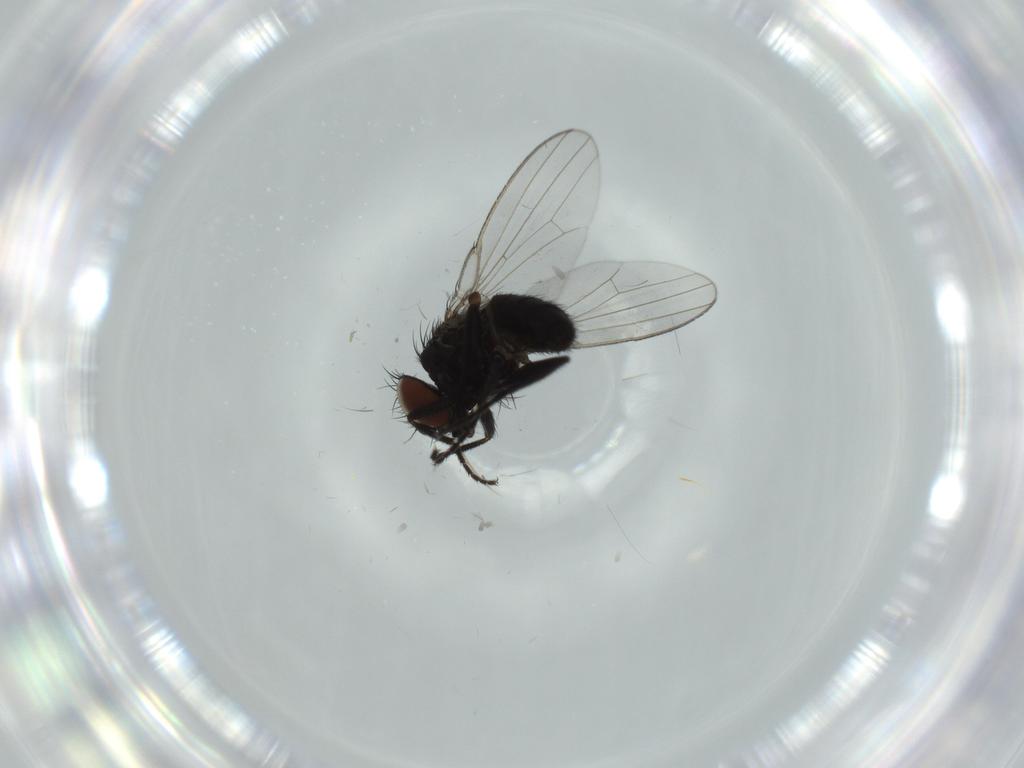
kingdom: Animalia
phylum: Arthropoda
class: Insecta
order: Diptera
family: Milichiidae
